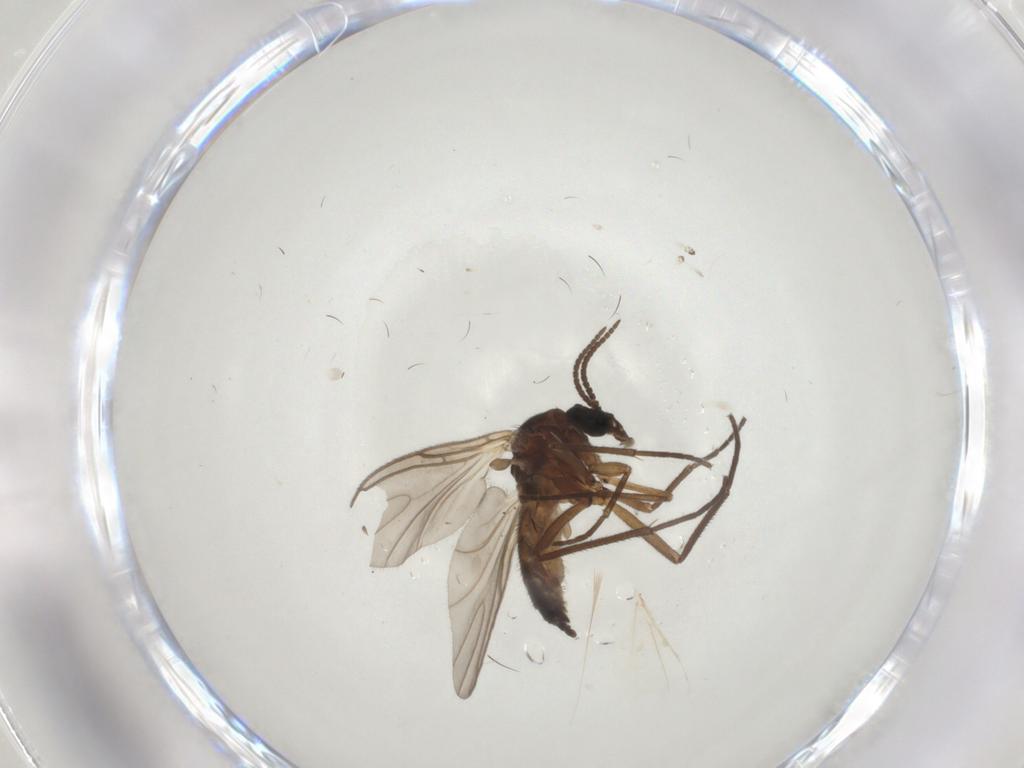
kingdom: Animalia
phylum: Arthropoda
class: Insecta
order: Diptera
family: Sciaridae
